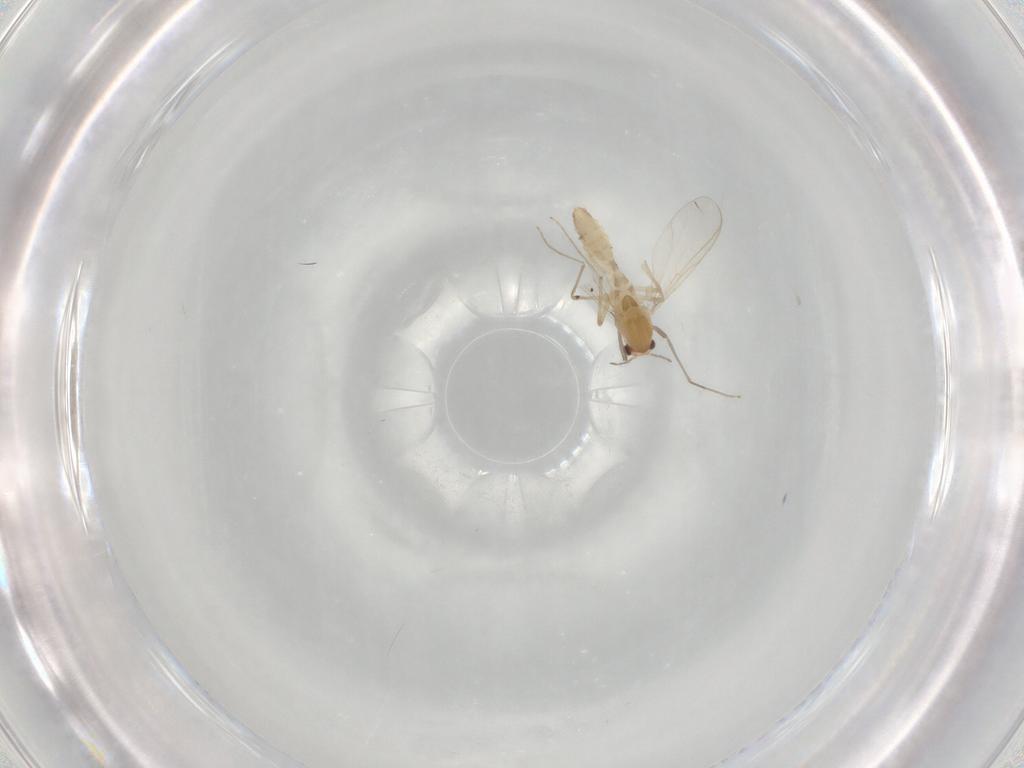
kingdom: Animalia
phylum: Arthropoda
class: Insecta
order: Diptera
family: Chironomidae
